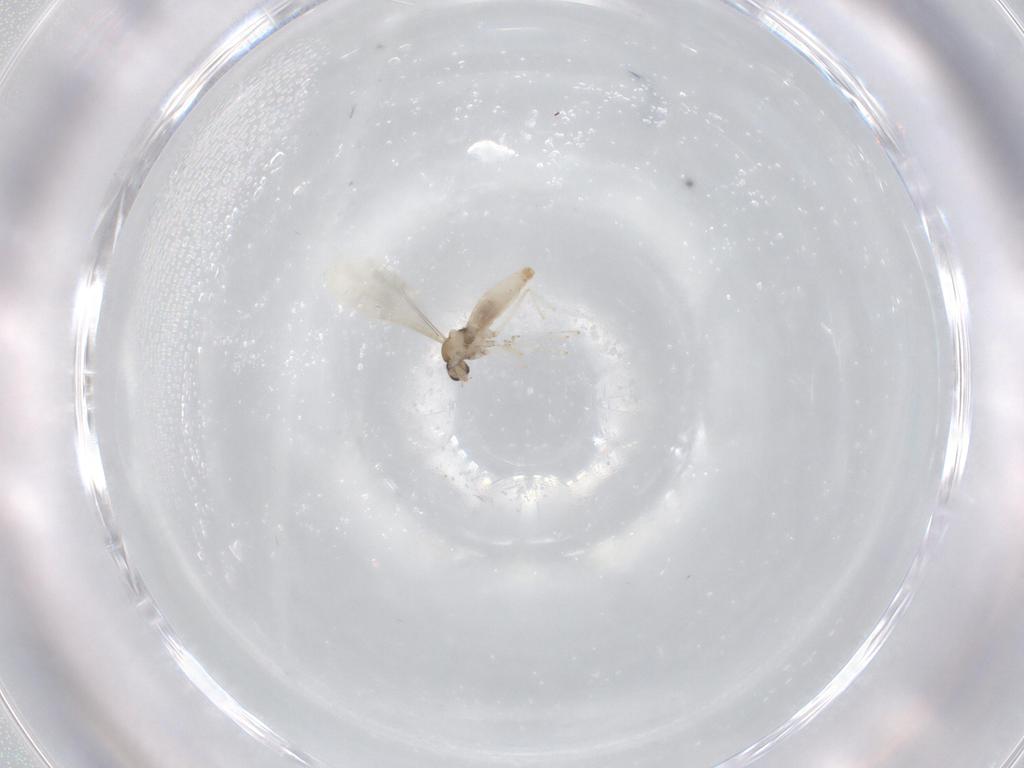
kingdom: Animalia
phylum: Arthropoda
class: Insecta
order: Diptera
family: Cecidomyiidae
